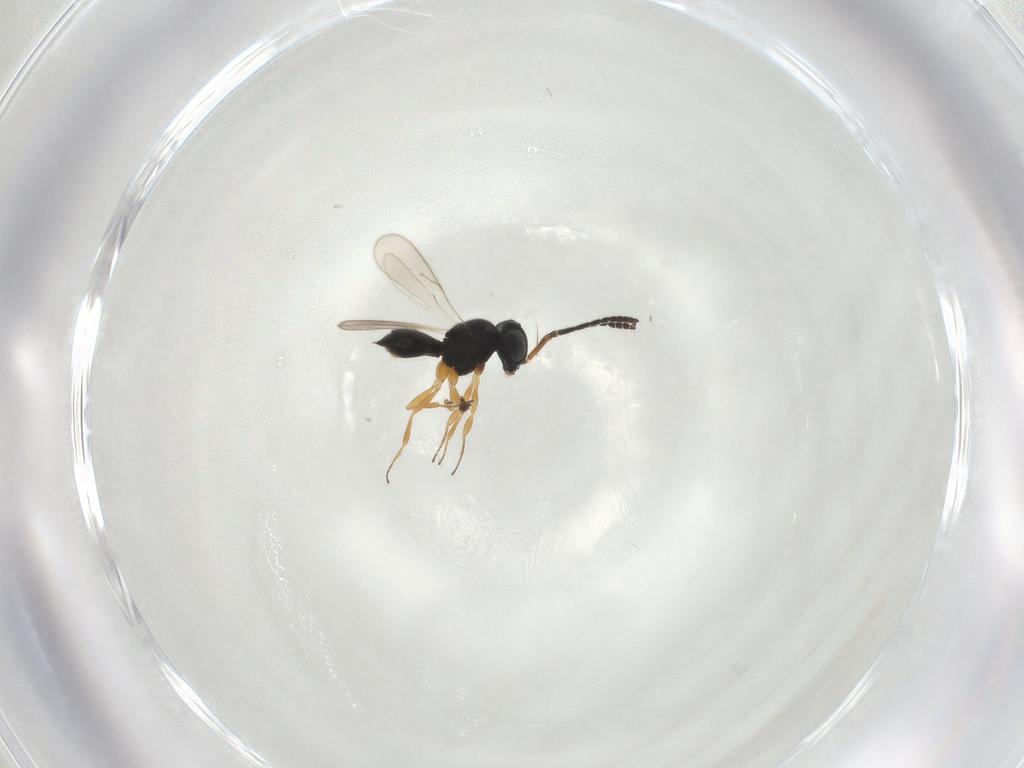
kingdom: Animalia
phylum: Arthropoda
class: Insecta
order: Hymenoptera
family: Scelionidae
